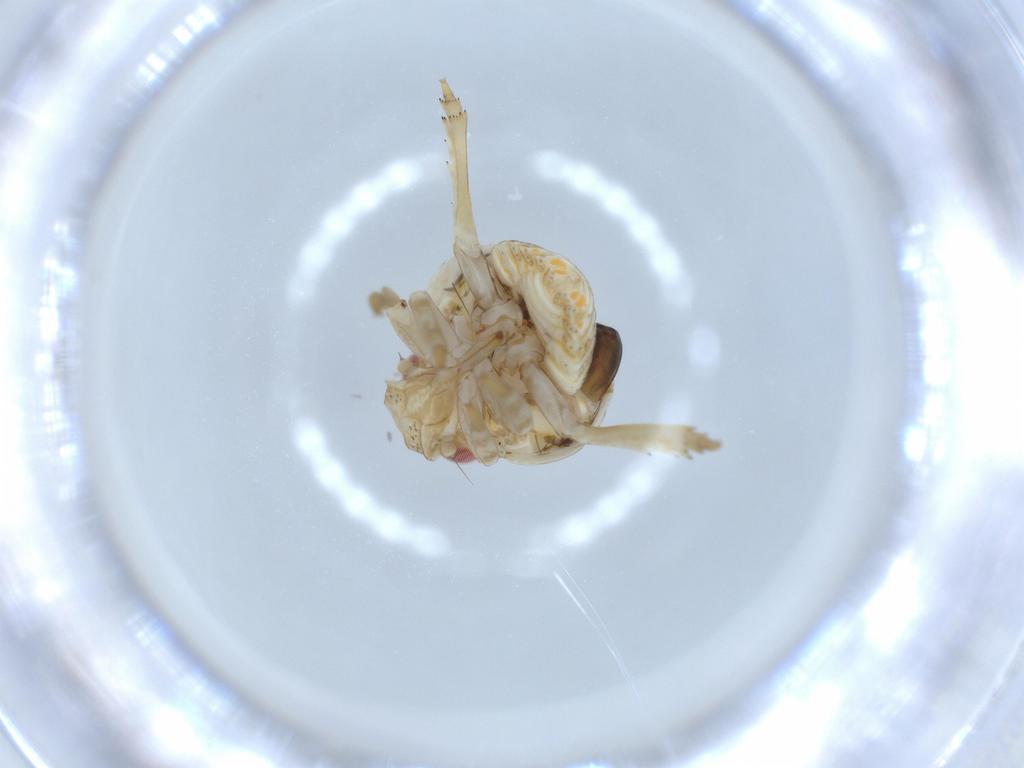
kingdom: Animalia
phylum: Arthropoda
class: Insecta
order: Hemiptera
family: Acanaloniidae
